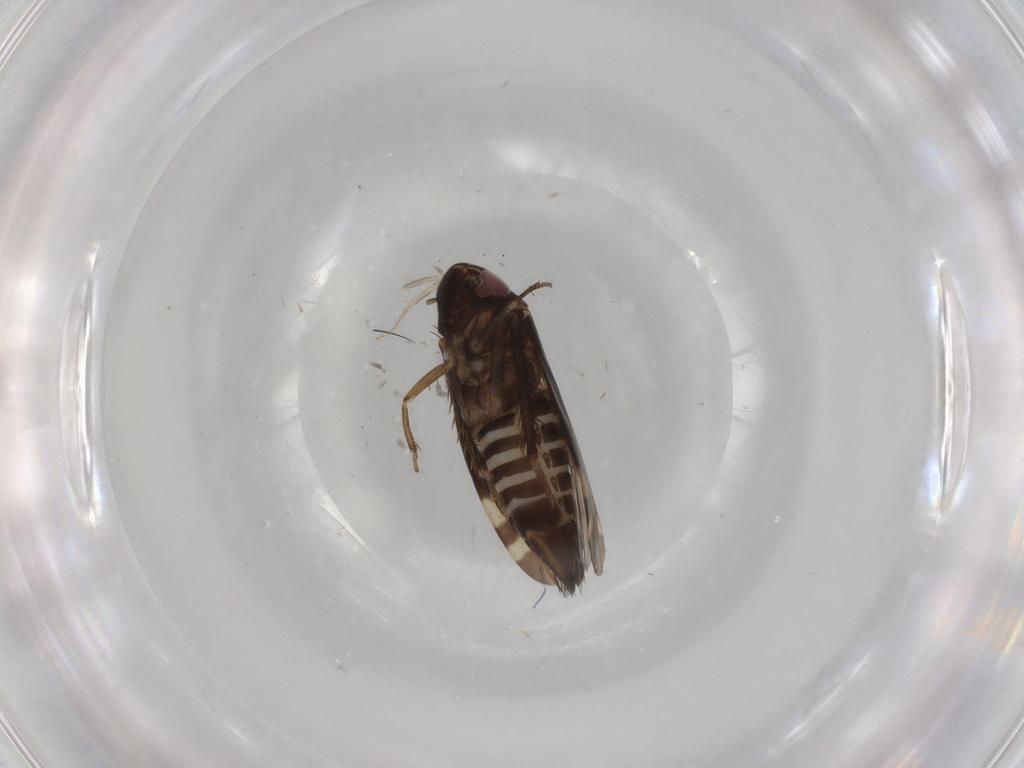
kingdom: Animalia
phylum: Arthropoda
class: Insecta
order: Hemiptera
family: Cicadellidae
